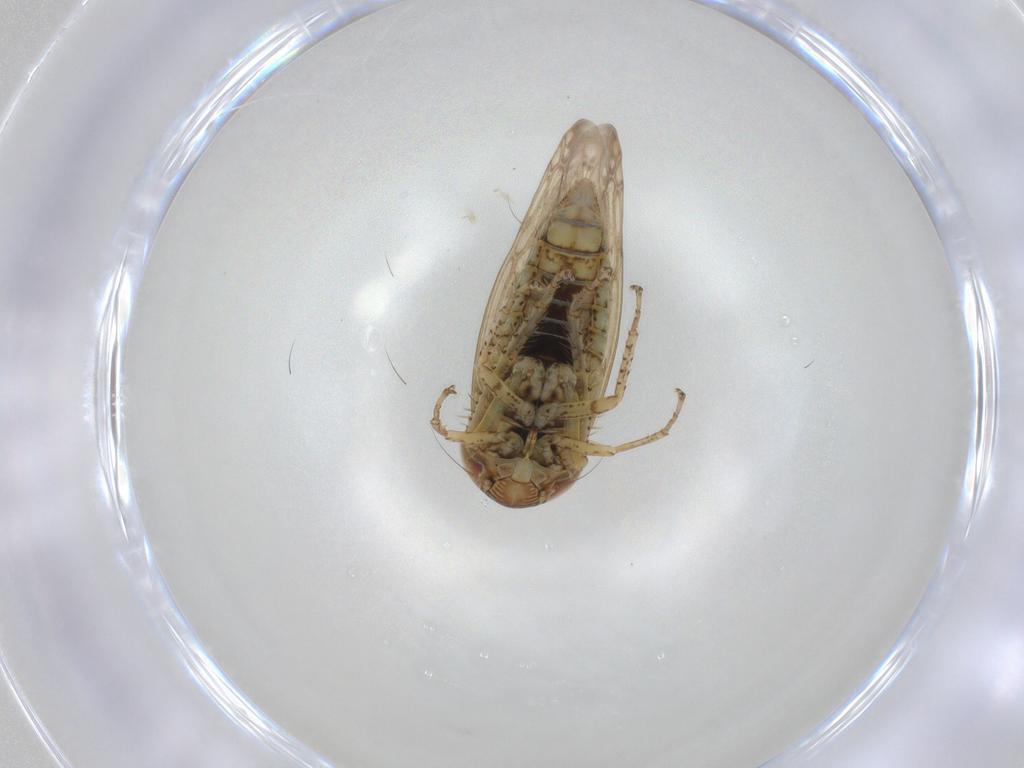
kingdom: Animalia
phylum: Arthropoda
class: Insecta
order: Hemiptera
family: Cicadellidae
